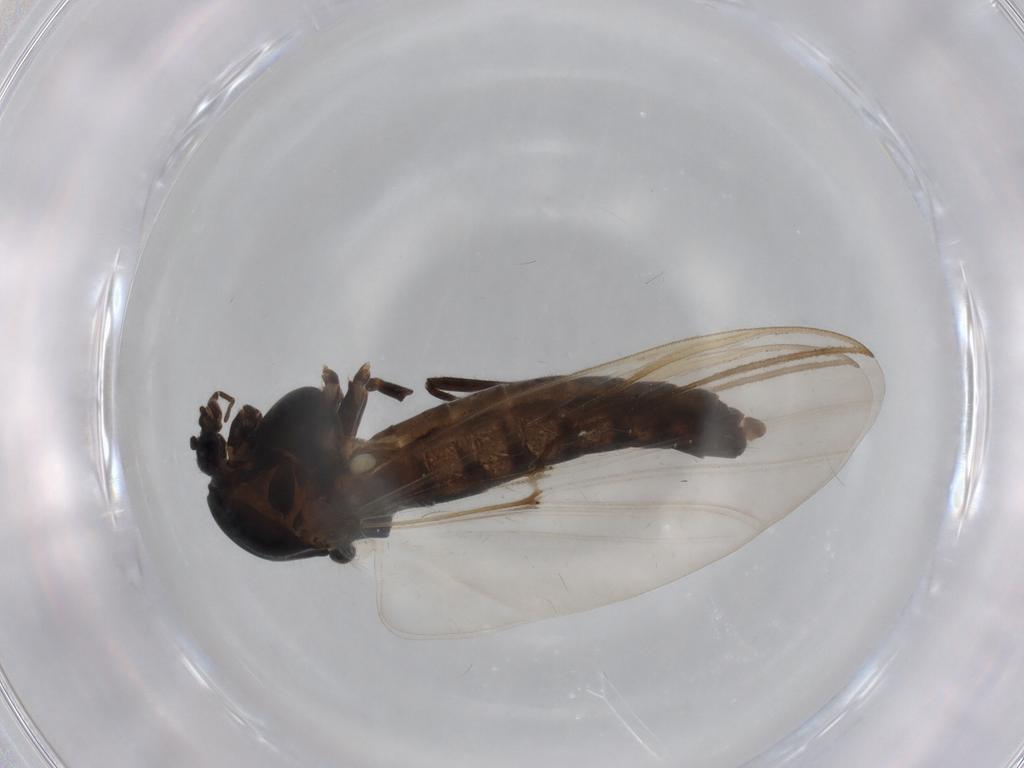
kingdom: Animalia
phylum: Arthropoda
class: Insecta
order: Diptera
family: Chironomidae
